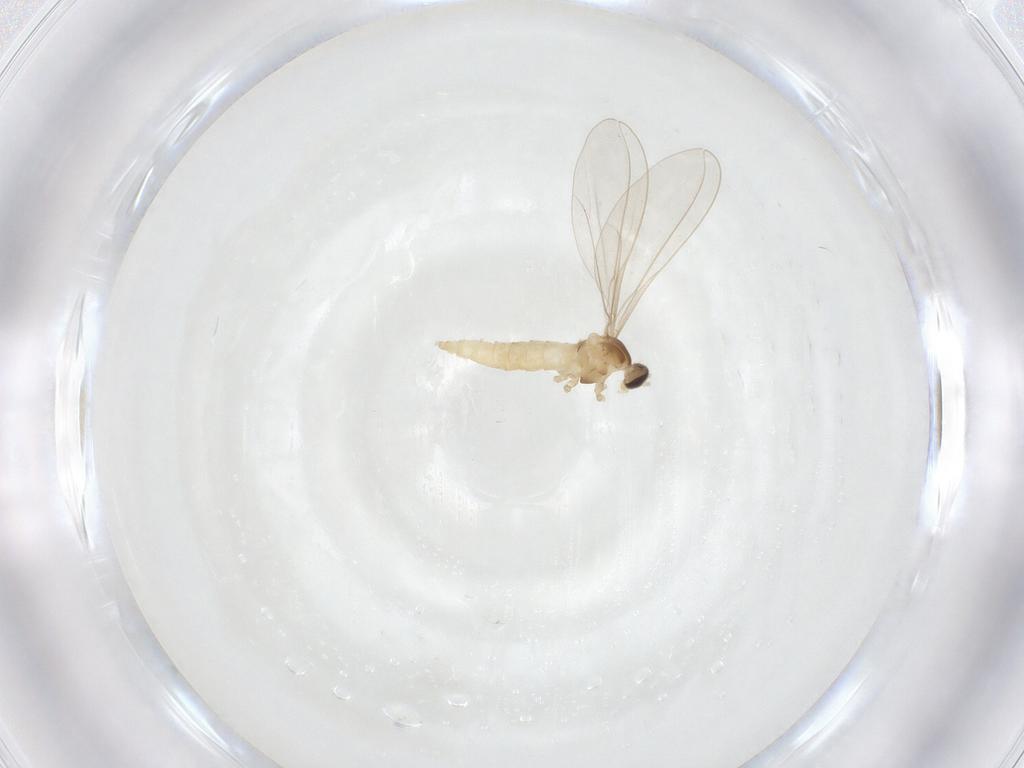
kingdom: Animalia
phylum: Arthropoda
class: Insecta
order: Diptera
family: Cecidomyiidae
